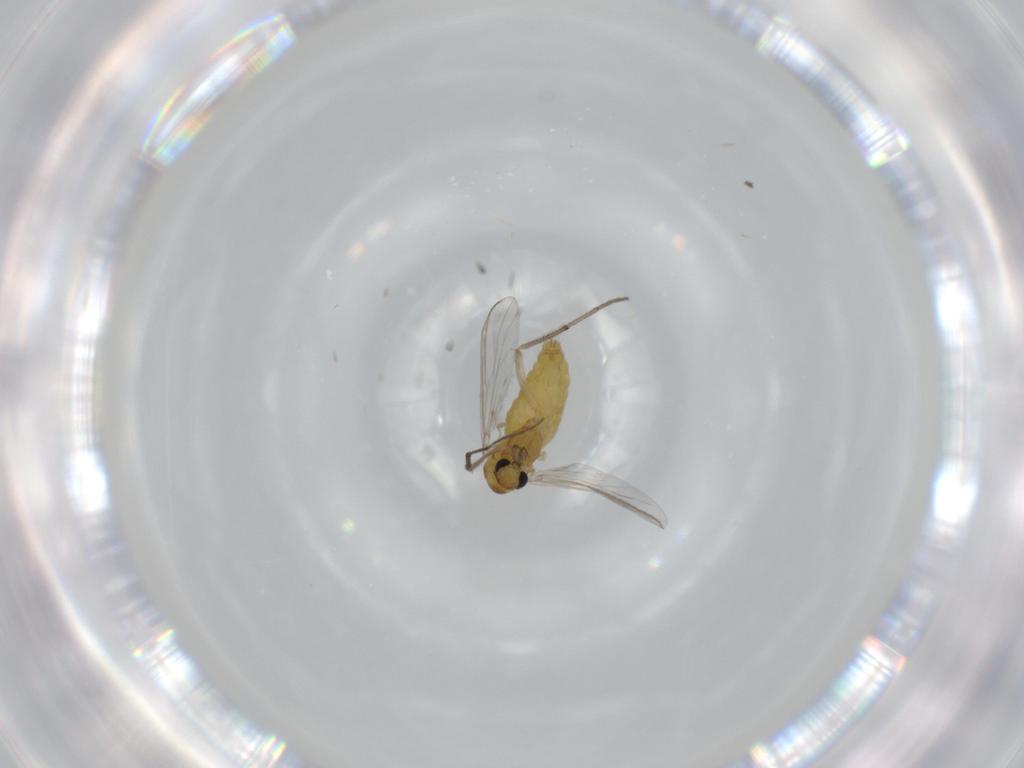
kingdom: Animalia
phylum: Arthropoda
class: Insecta
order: Diptera
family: Chironomidae
